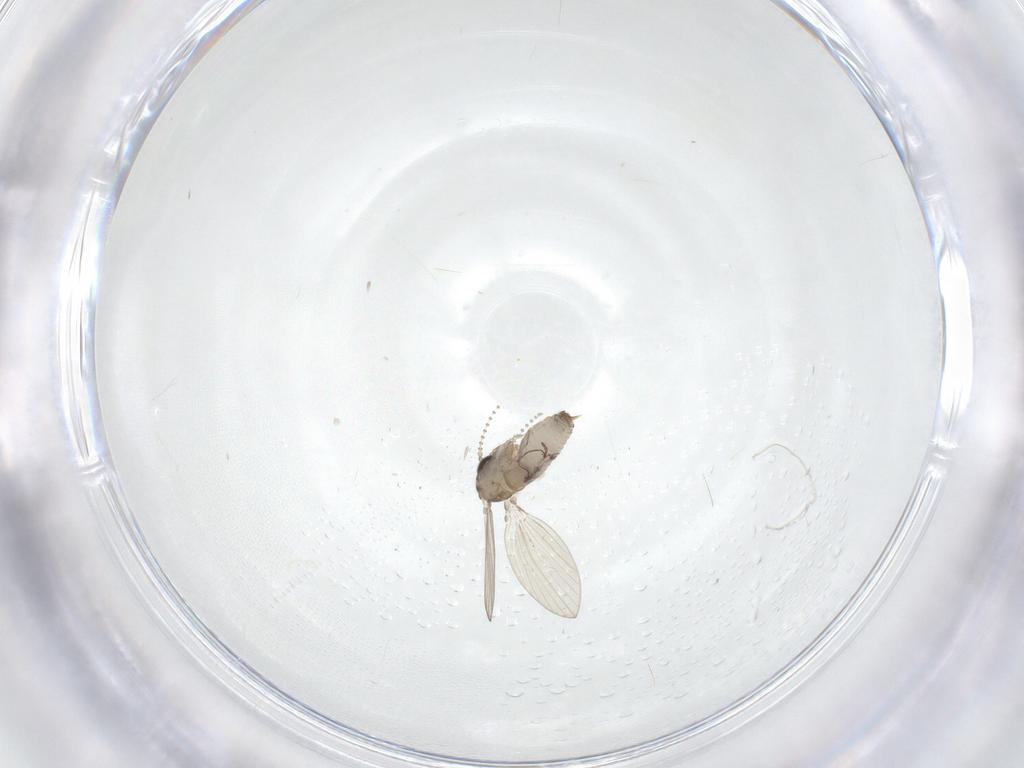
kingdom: Animalia
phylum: Arthropoda
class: Insecta
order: Diptera
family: Psychodidae
